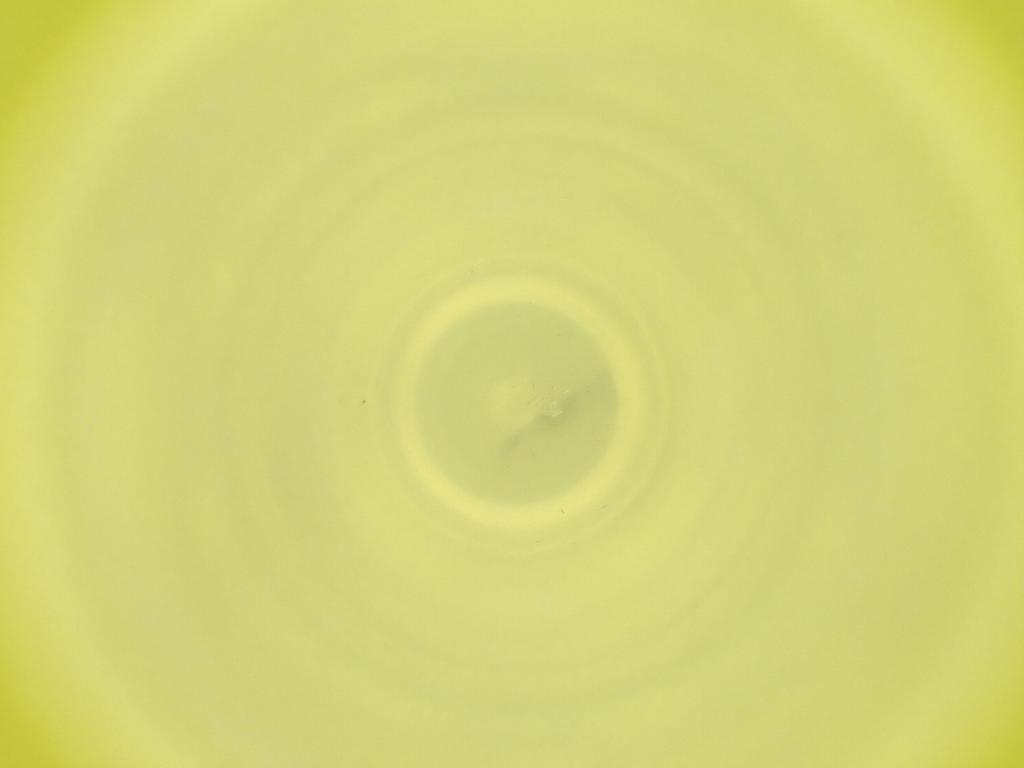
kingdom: Animalia
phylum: Arthropoda
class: Insecta
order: Diptera
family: Cecidomyiidae
